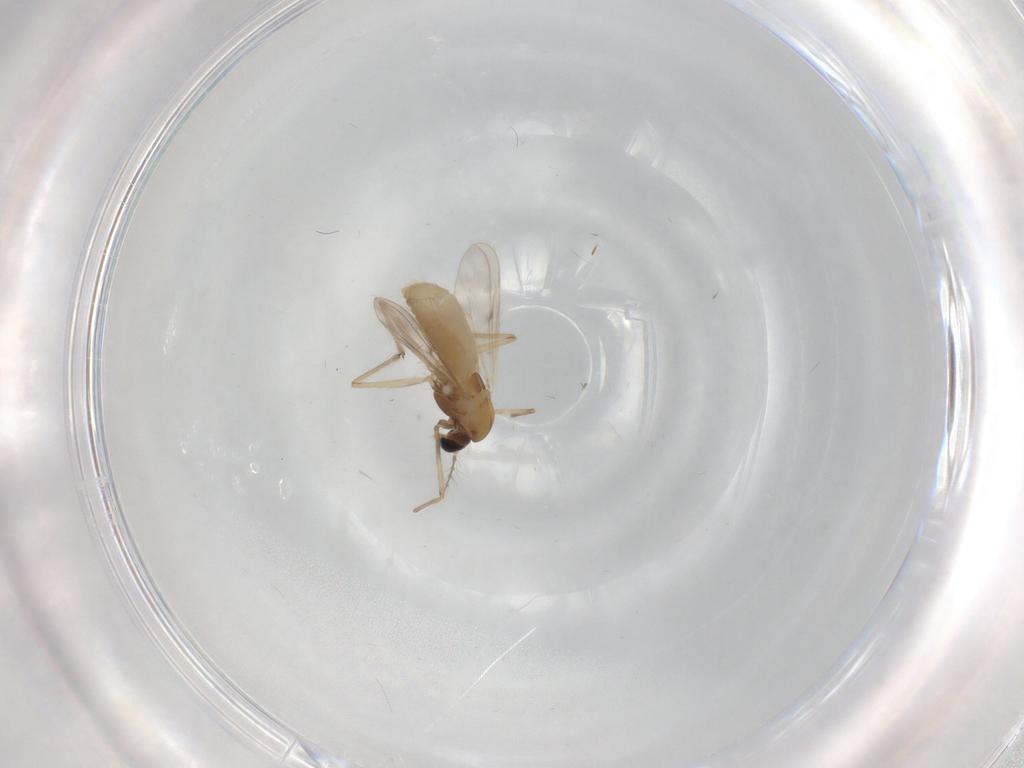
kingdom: Animalia
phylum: Arthropoda
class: Insecta
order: Diptera
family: Chironomidae
